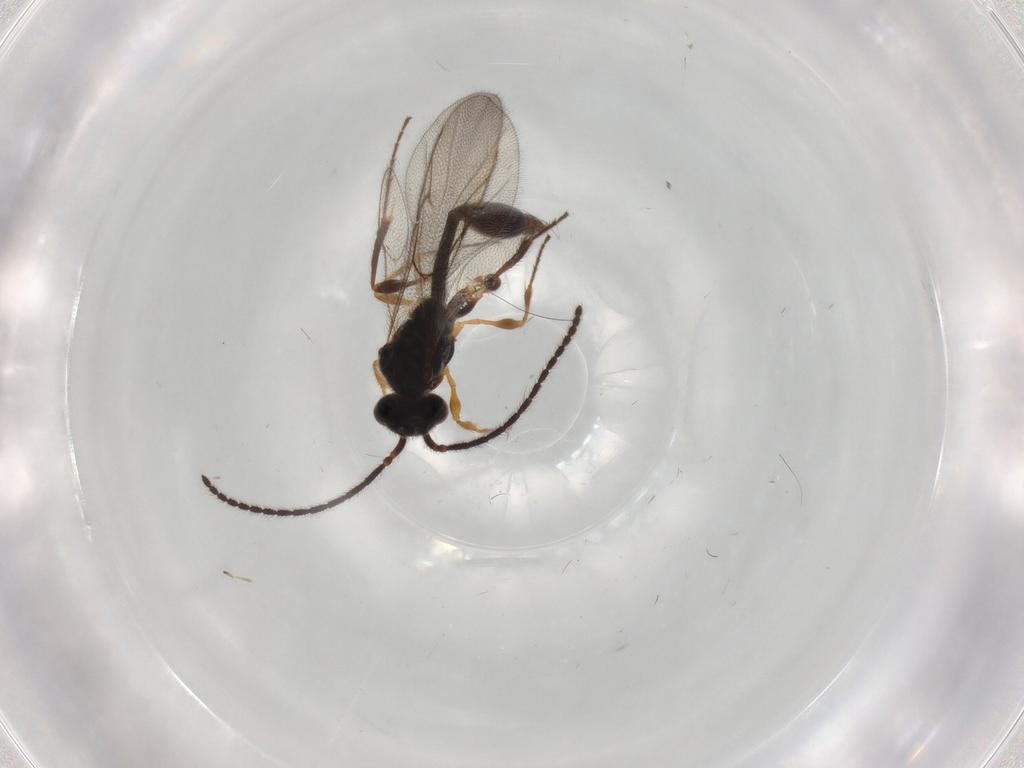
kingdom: Animalia
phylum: Arthropoda
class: Insecta
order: Hymenoptera
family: Diapriidae
